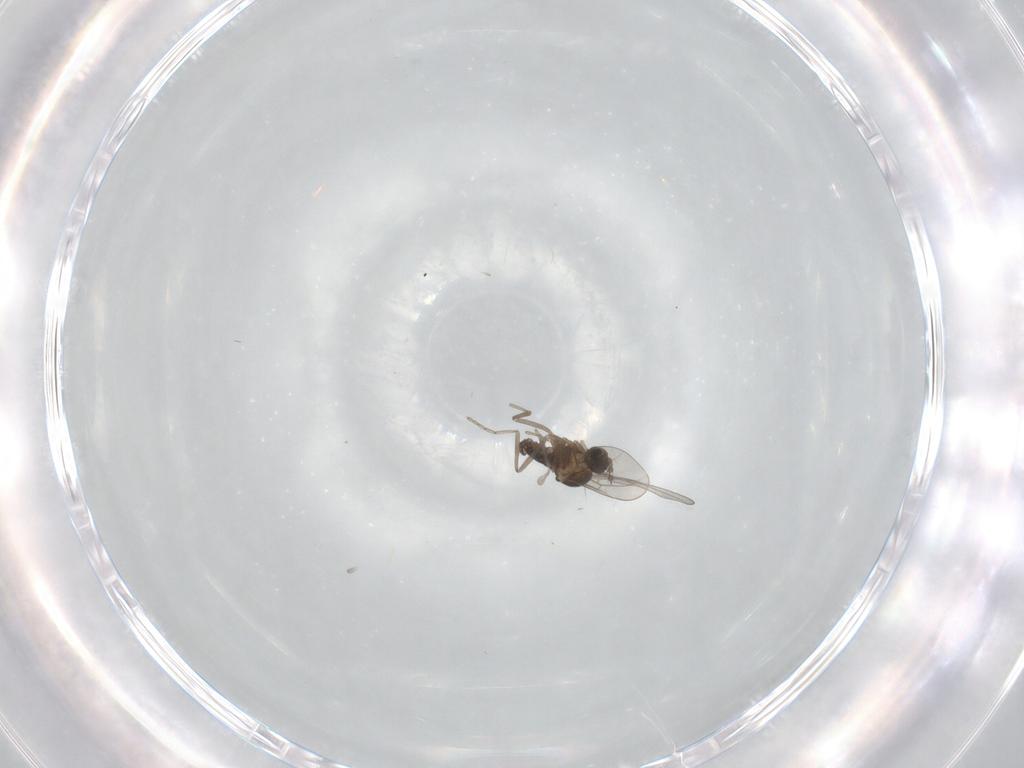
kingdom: Animalia
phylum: Arthropoda
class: Insecta
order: Diptera
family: Cecidomyiidae
